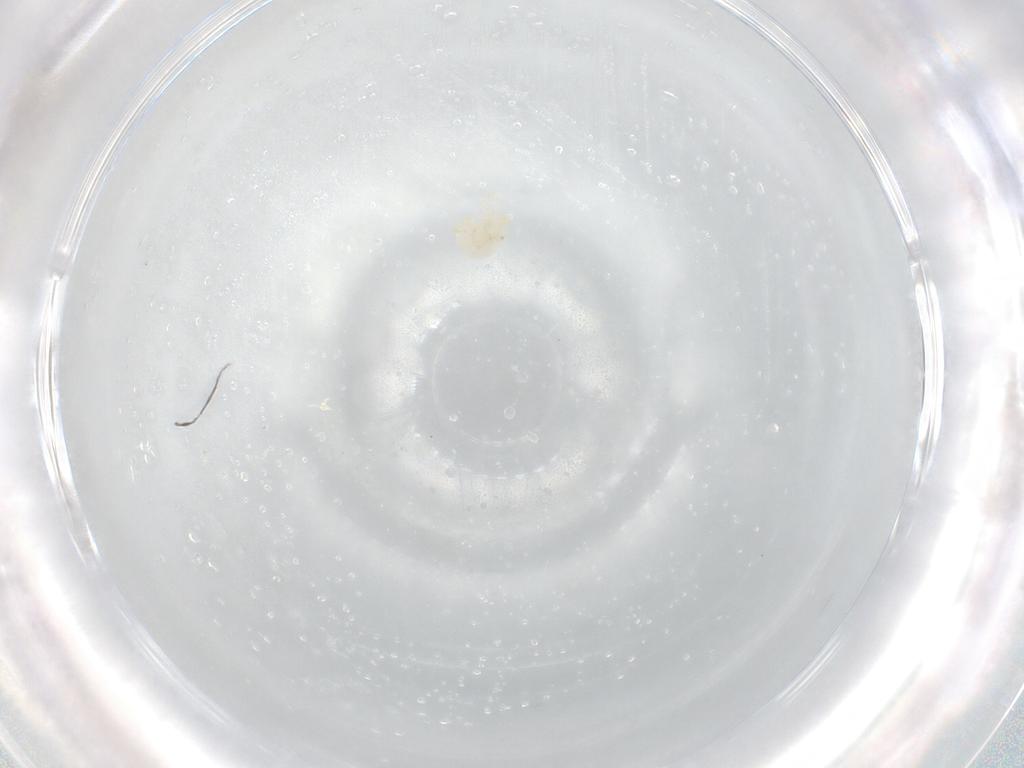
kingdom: Animalia
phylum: Arthropoda
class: Arachnida
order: Trombidiformes
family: Sperchontidae
